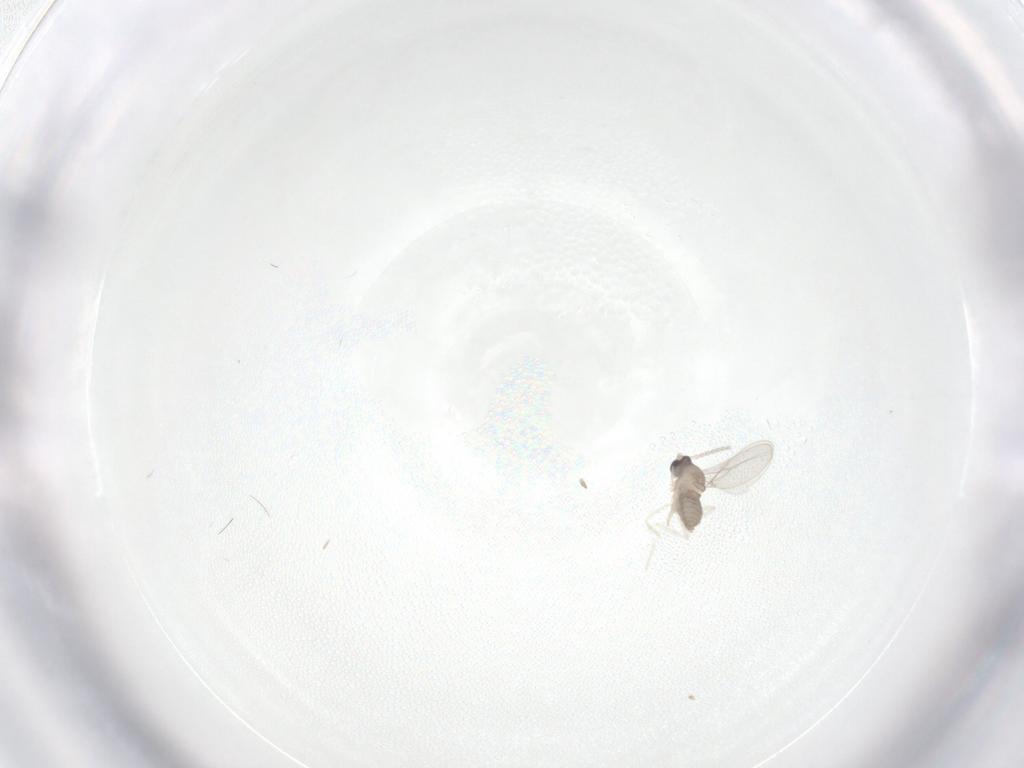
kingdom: Animalia
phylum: Arthropoda
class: Insecta
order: Diptera
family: Cecidomyiidae
